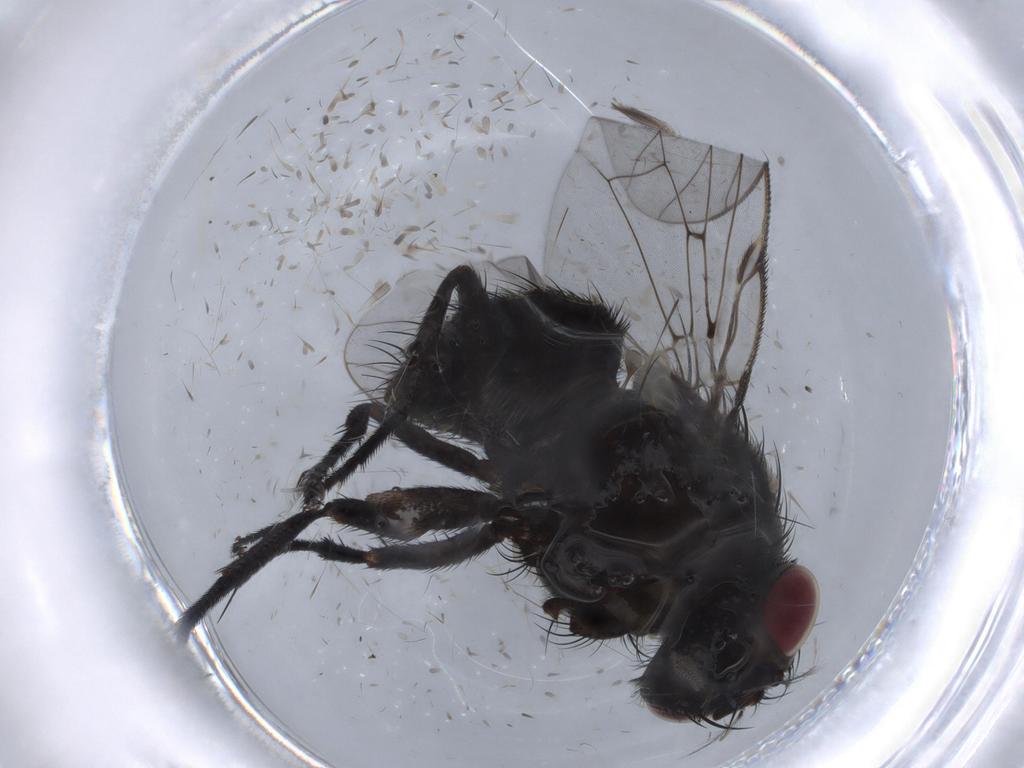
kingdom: Animalia
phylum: Arthropoda
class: Insecta
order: Diptera
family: Muscidae
